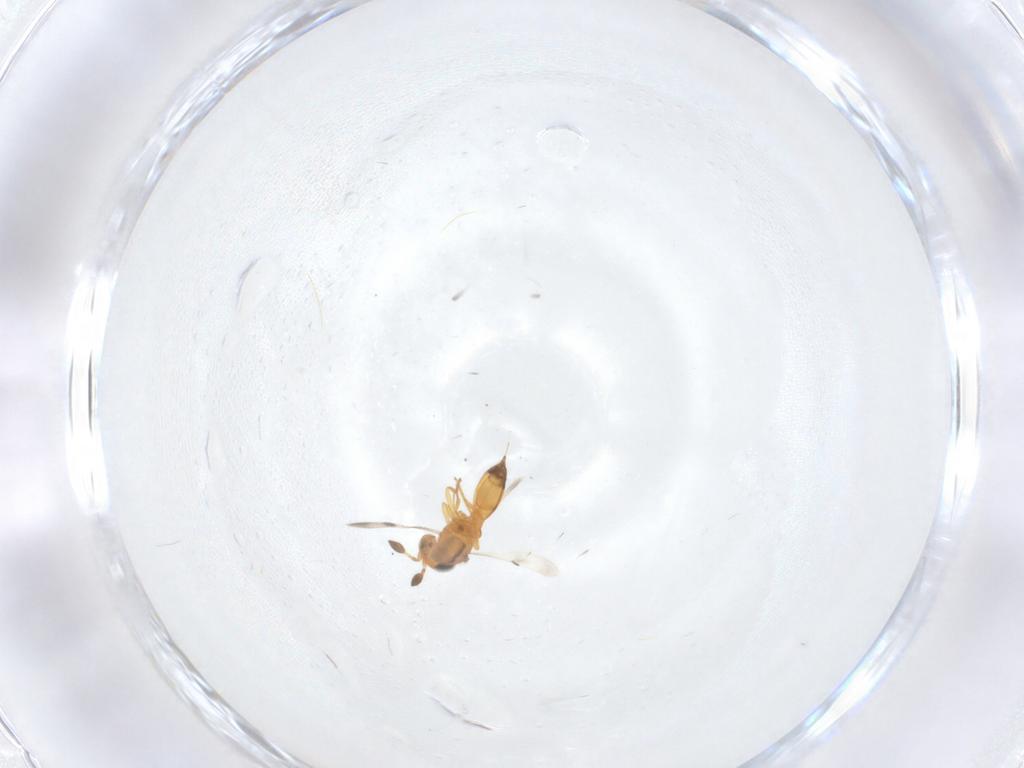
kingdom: Animalia
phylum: Arthropoda
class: Insecta
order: Hymenoptera
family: Scelionidae
